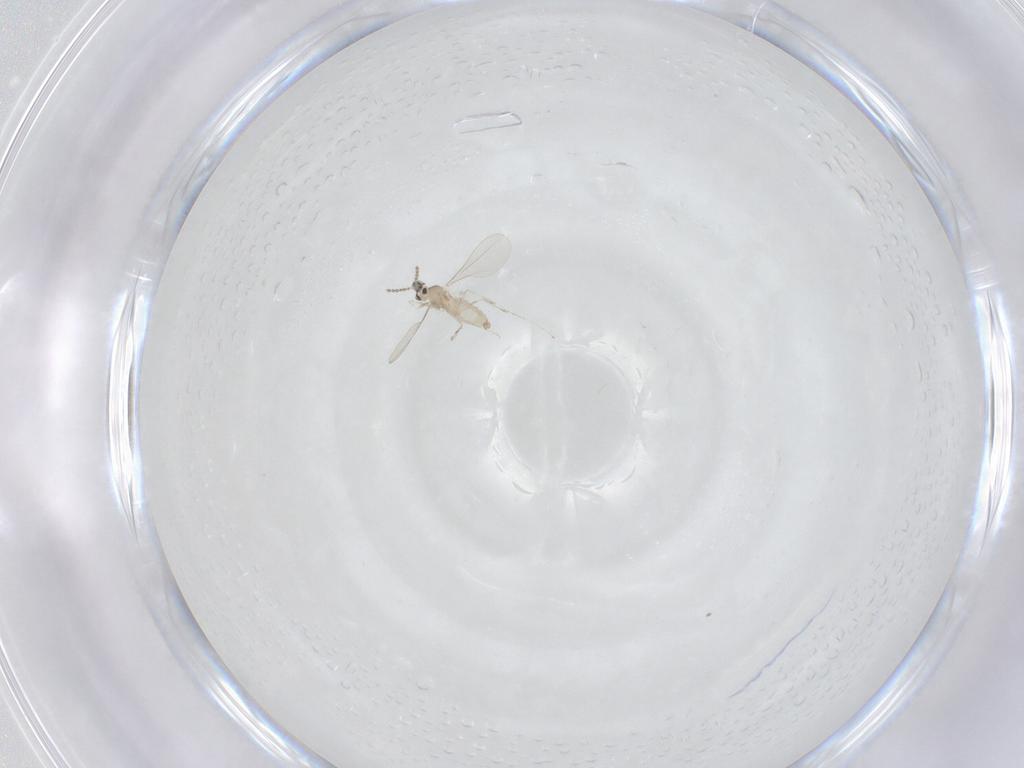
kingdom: Animalia
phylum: Arthropoda
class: Insecta
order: Diptera
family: Cecidomyiidae
